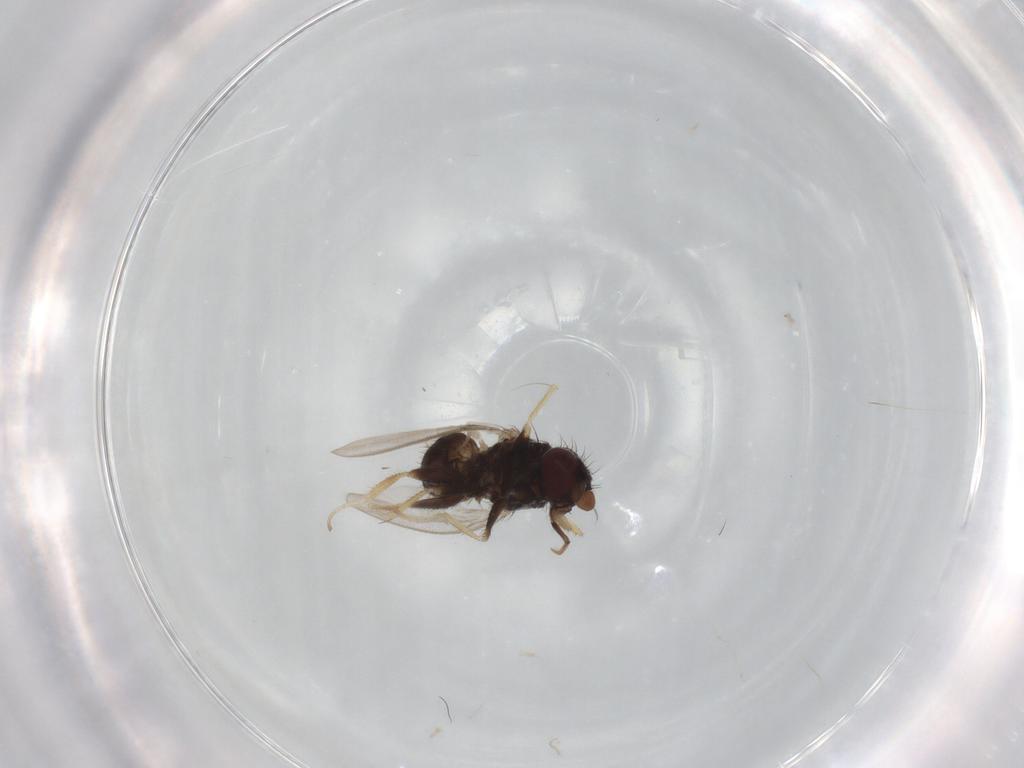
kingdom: Animalia
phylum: Arthropoda
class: Insecta
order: Diptera
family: Milichiidae
